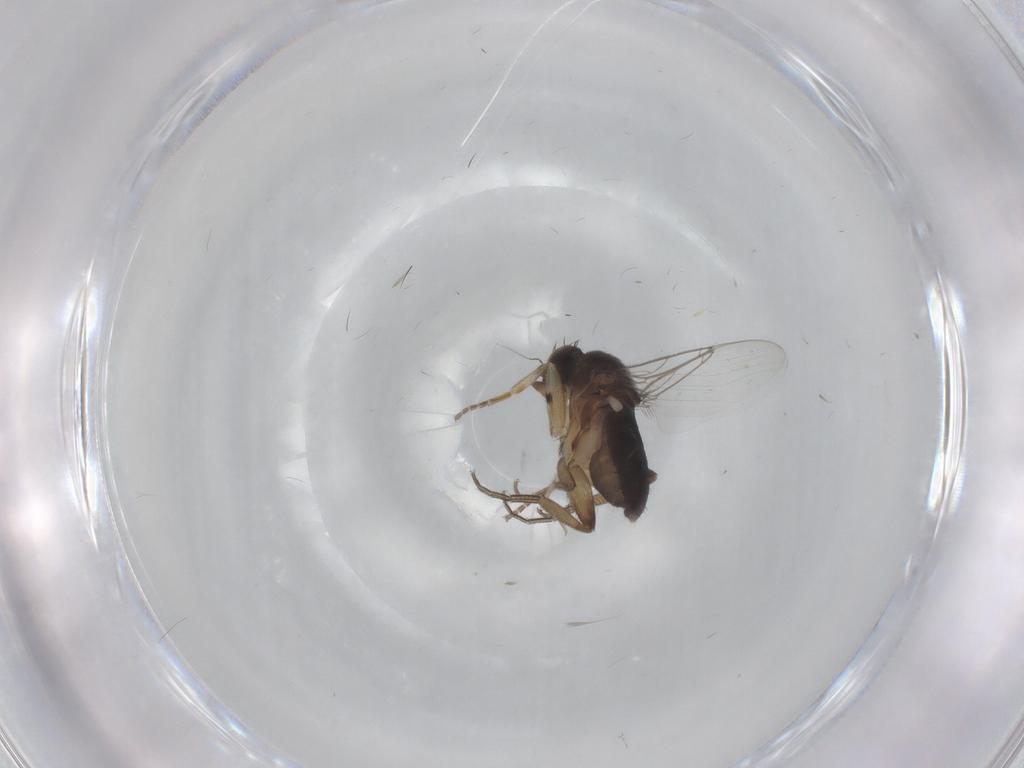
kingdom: Animalia
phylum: Arthropoda
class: Insecta
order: Diptera
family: Phoridae
